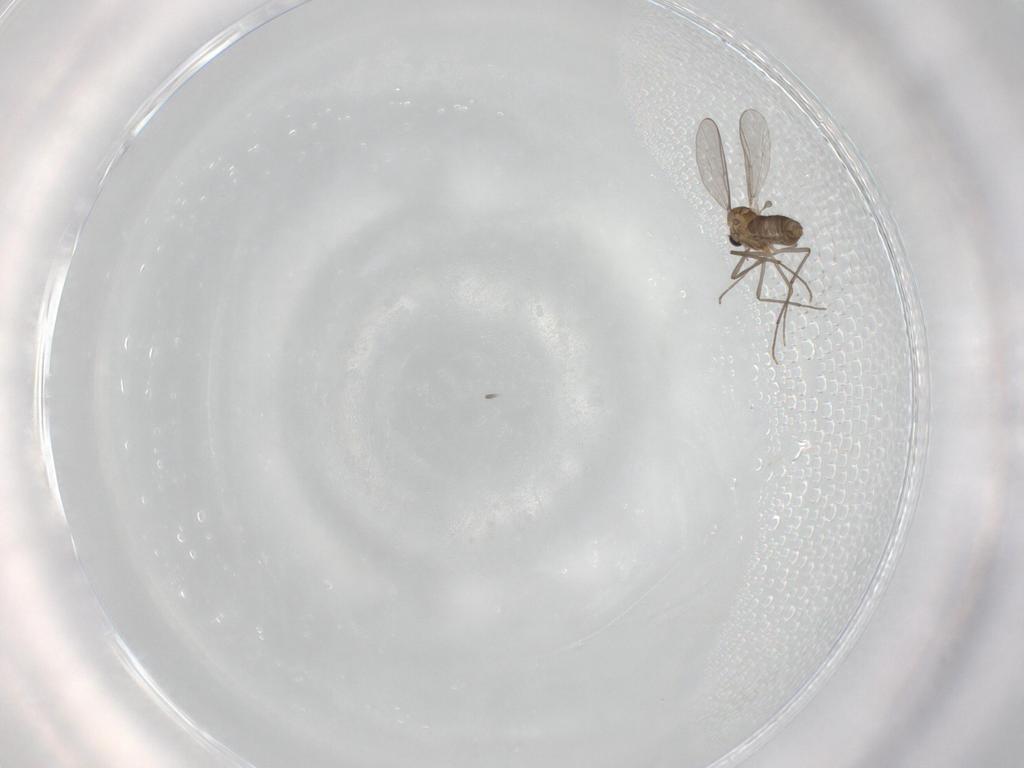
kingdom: Animalia
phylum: Arthropoda
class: Insecta
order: Diptera
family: Chironomidae
